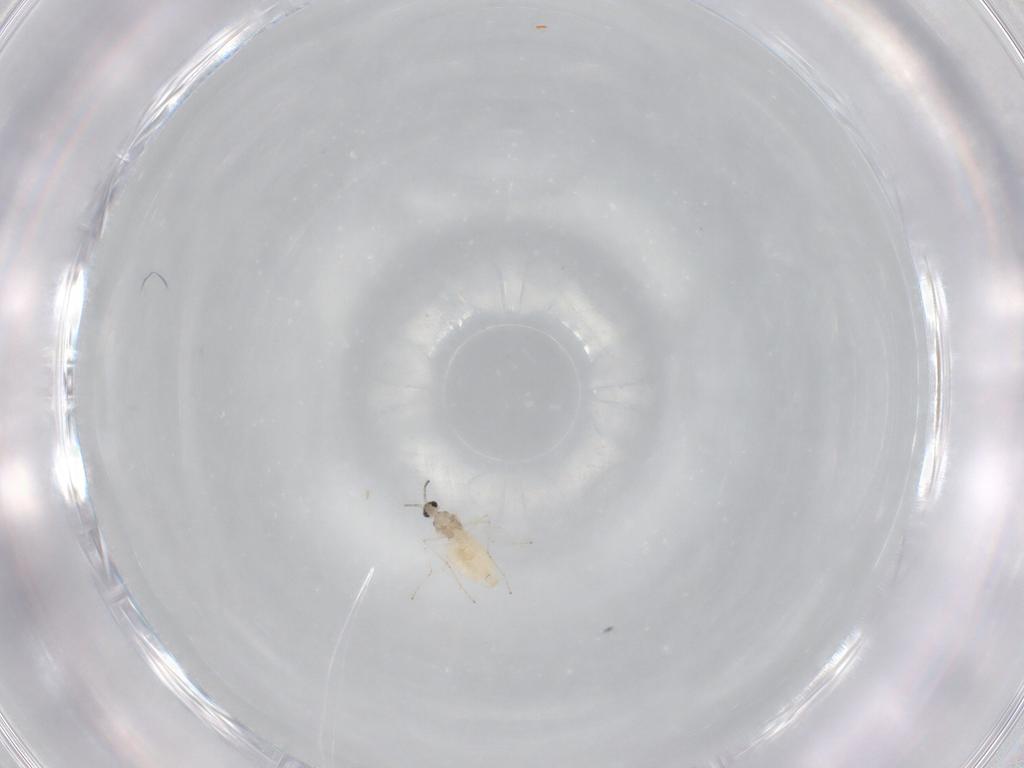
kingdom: Animalia
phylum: Arthropoda
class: Insecta
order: Diptera
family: Cecidomyiidae
